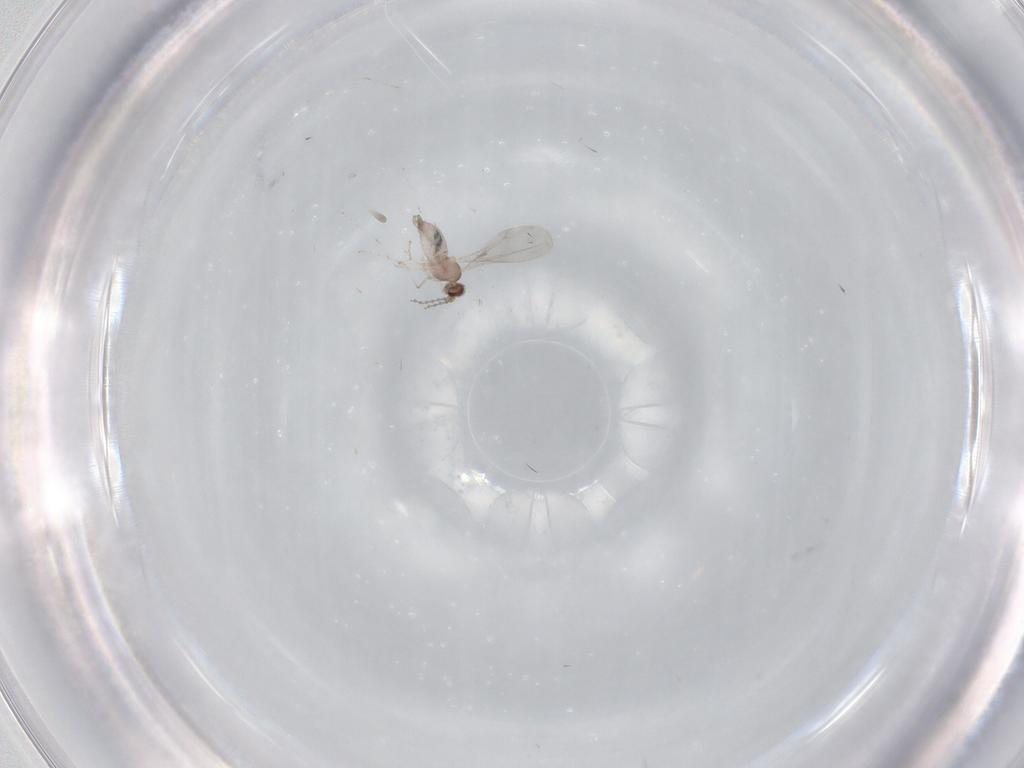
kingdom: Animalia
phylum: Arthropoda
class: Insecta
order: Diptera
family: Cecidomyiidae
